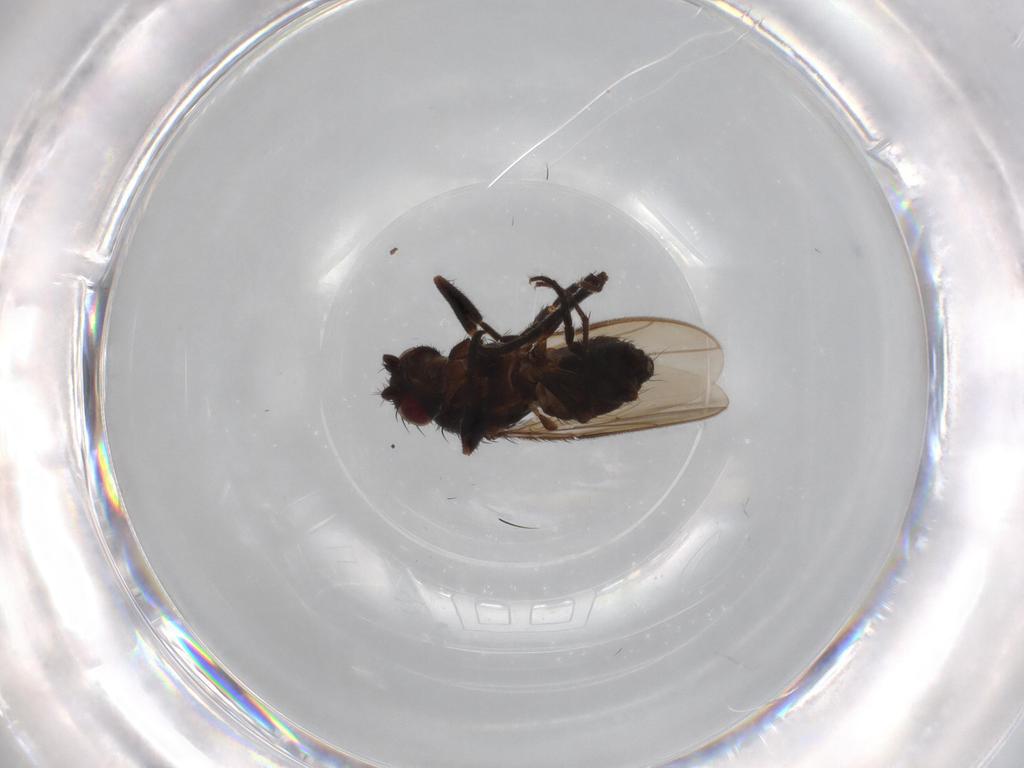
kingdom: Animalia
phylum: Arthropoda
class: Insecta
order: Diptera
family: Sphaeroceridae
